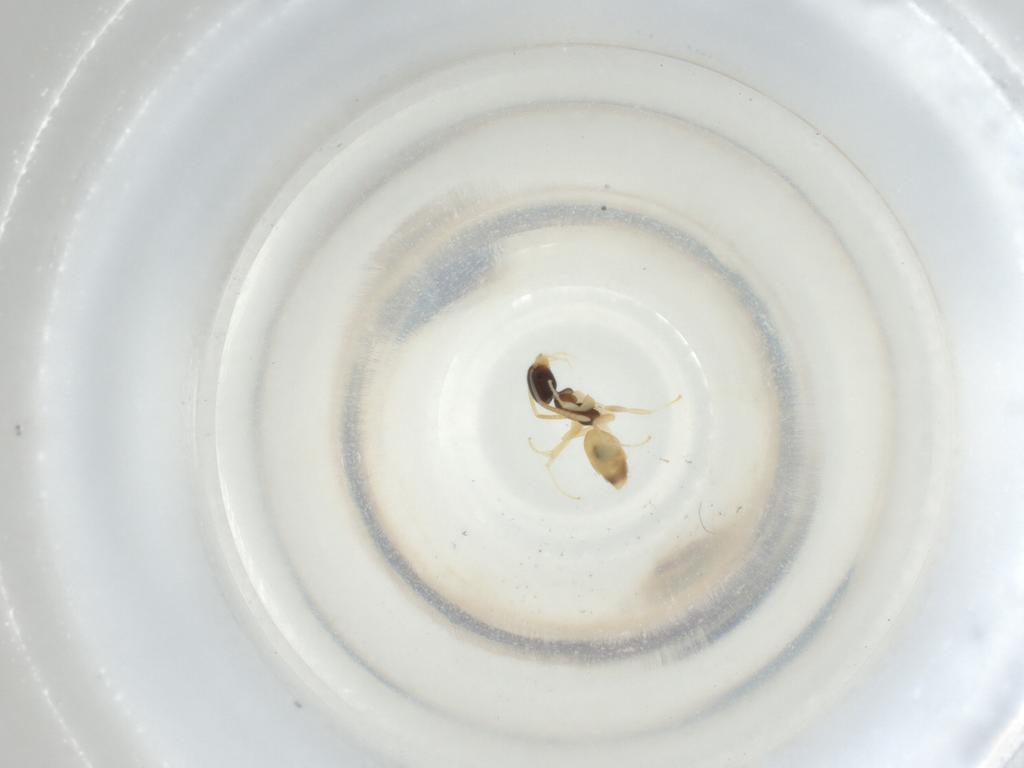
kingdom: Animalia
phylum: Arthropoda
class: Insecta
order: Hymenoptera
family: Formicidae
